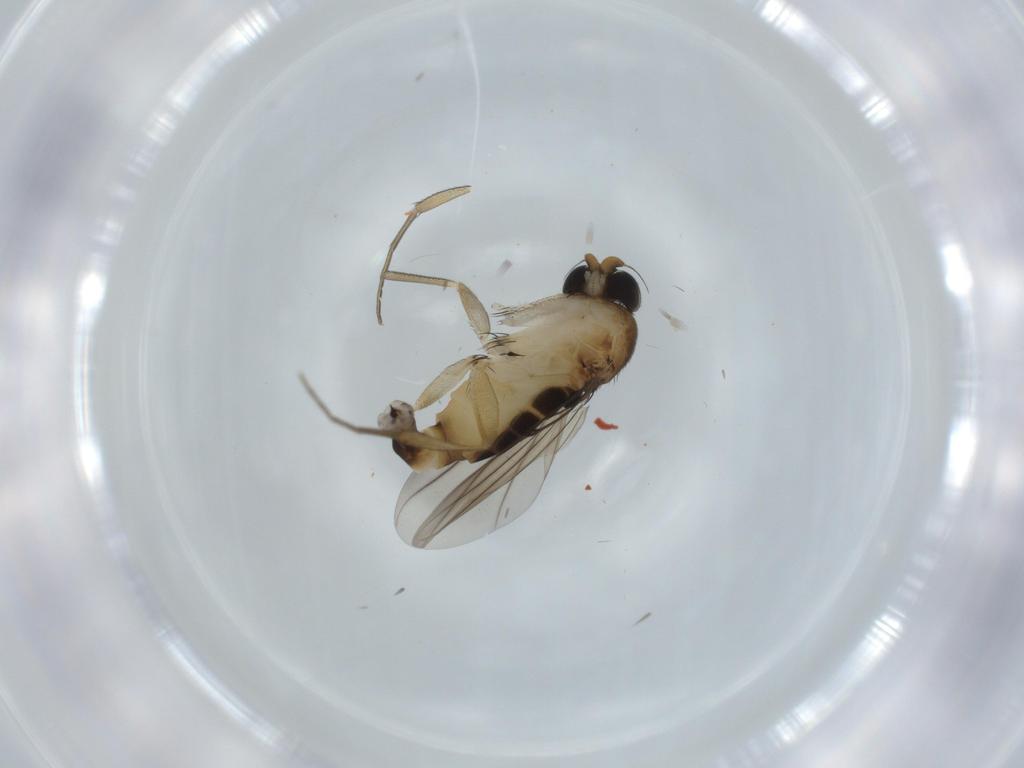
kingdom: Animalia
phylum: Arthropoda
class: Insecta
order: Diptera
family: Phoridae
